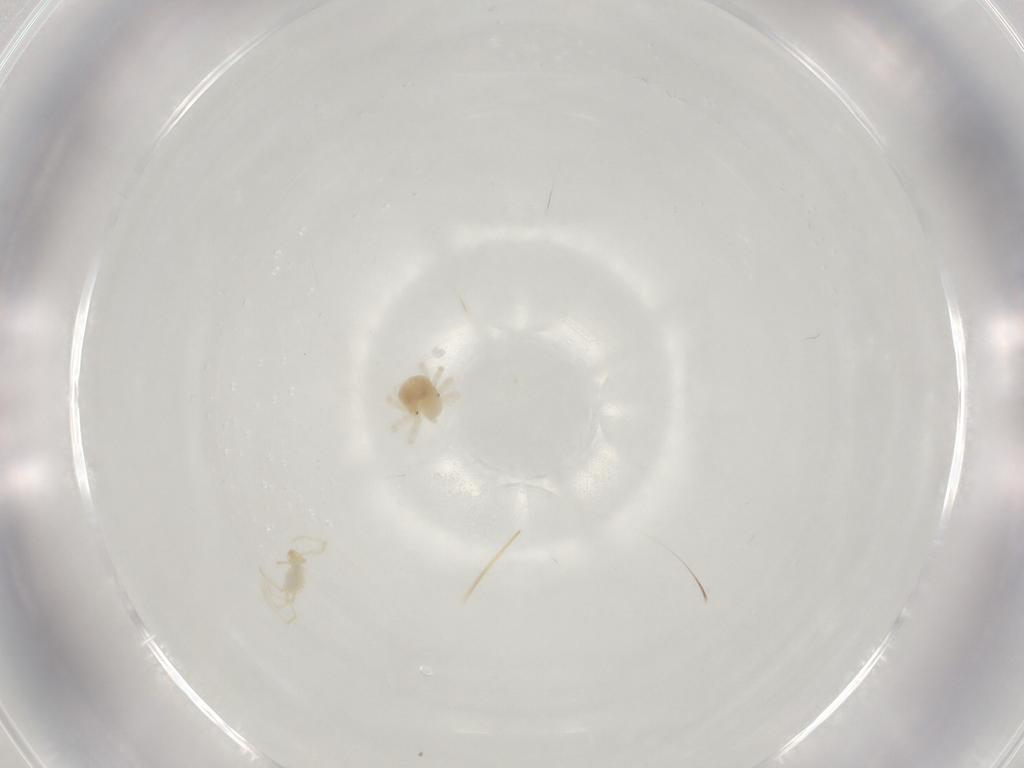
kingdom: Animalia
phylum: Arthropoda
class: Arachnida
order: Trombidiformes
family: Erythraeidae
